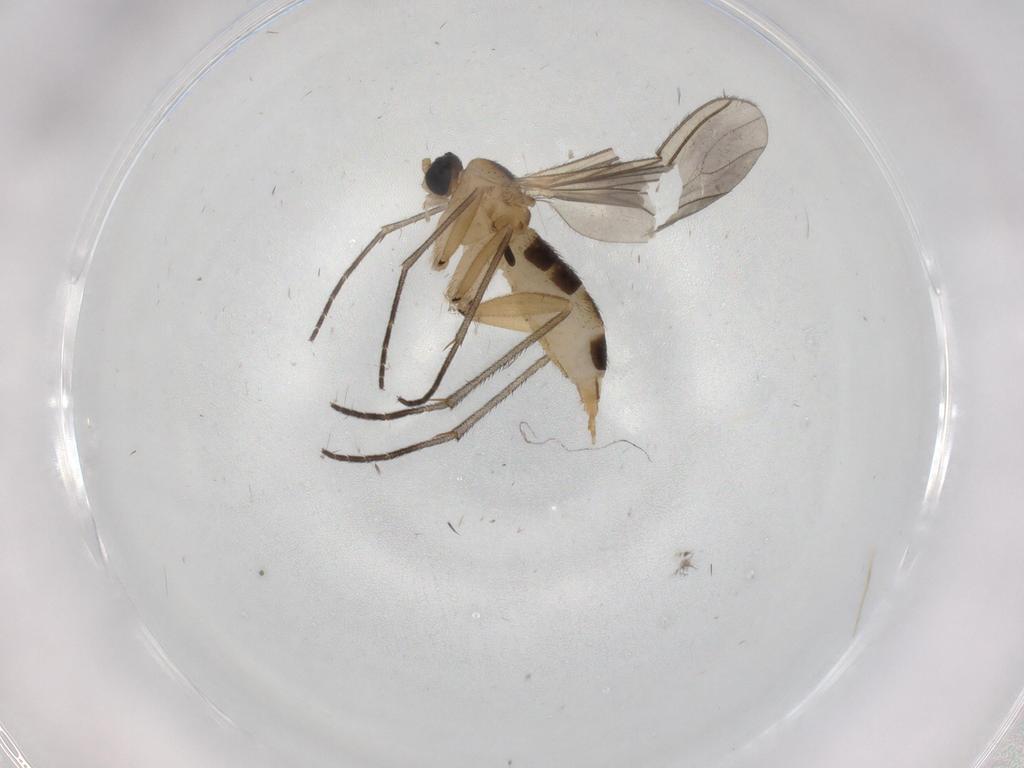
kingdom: Animalia
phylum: Arthropoda
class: Insecta
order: Diptera
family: Sciaridae
